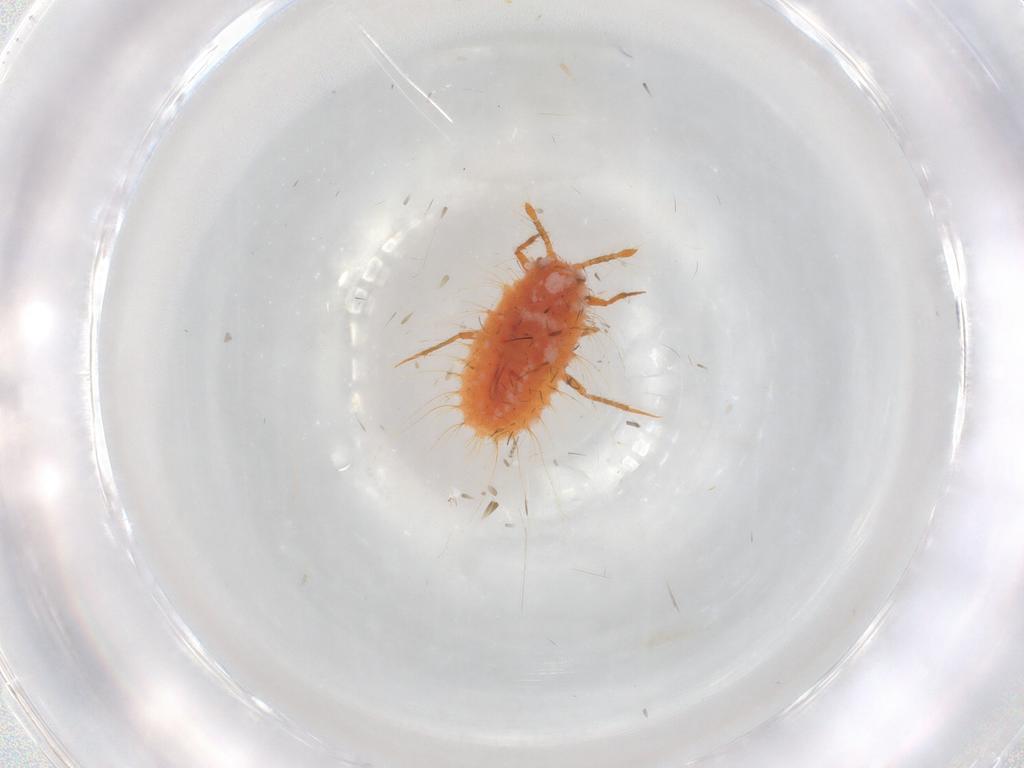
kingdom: Animalia
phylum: Arthropoda
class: Insecta
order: Hemiptera
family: Coccoidea_incertae_sedis
